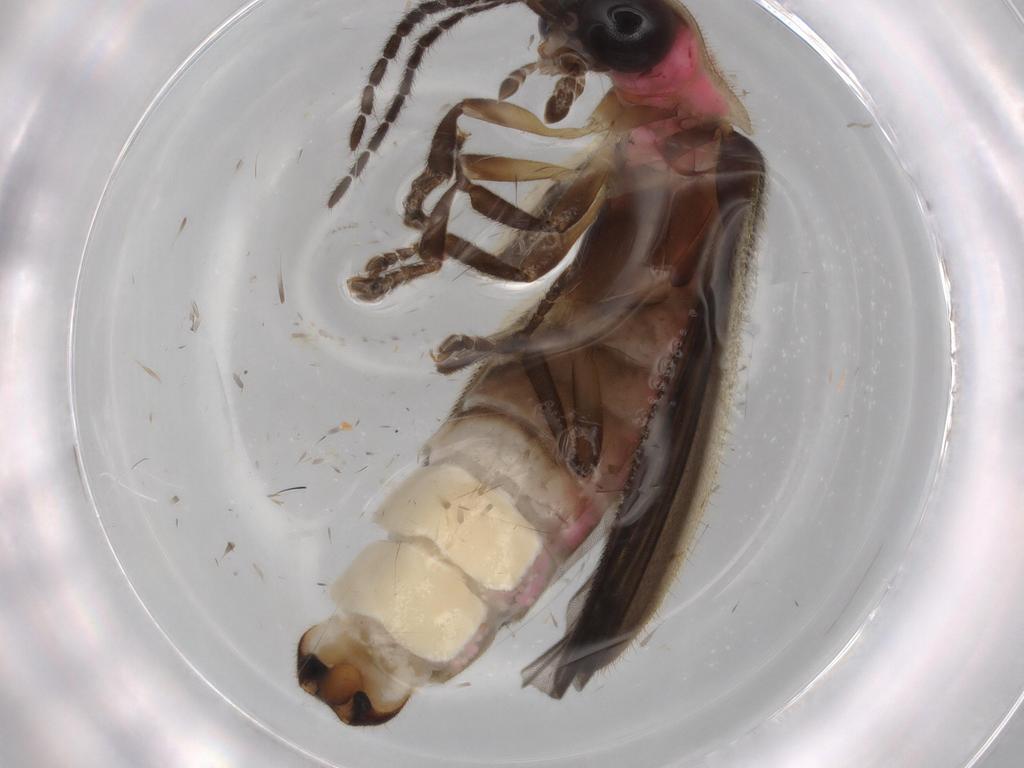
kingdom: Animalia
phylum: Arthropoda
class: Insecta
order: Coleoptera
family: Lampyridae
